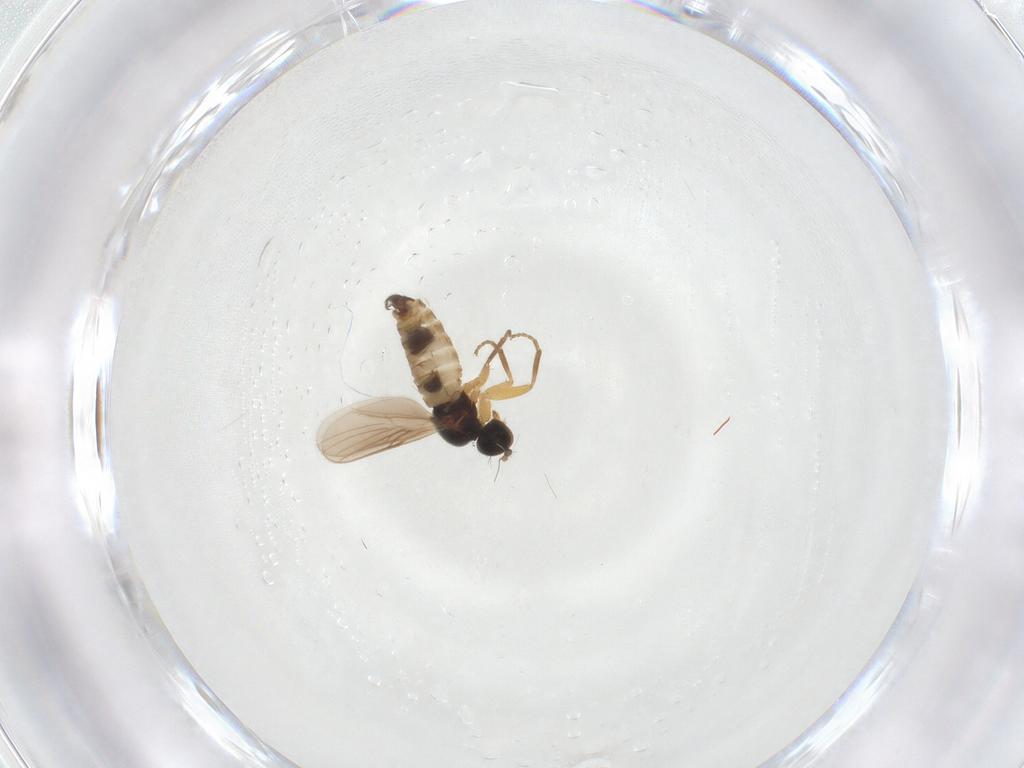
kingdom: Animalia
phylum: Arthropoda
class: Insecta
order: Diptera
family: Hybotidae
